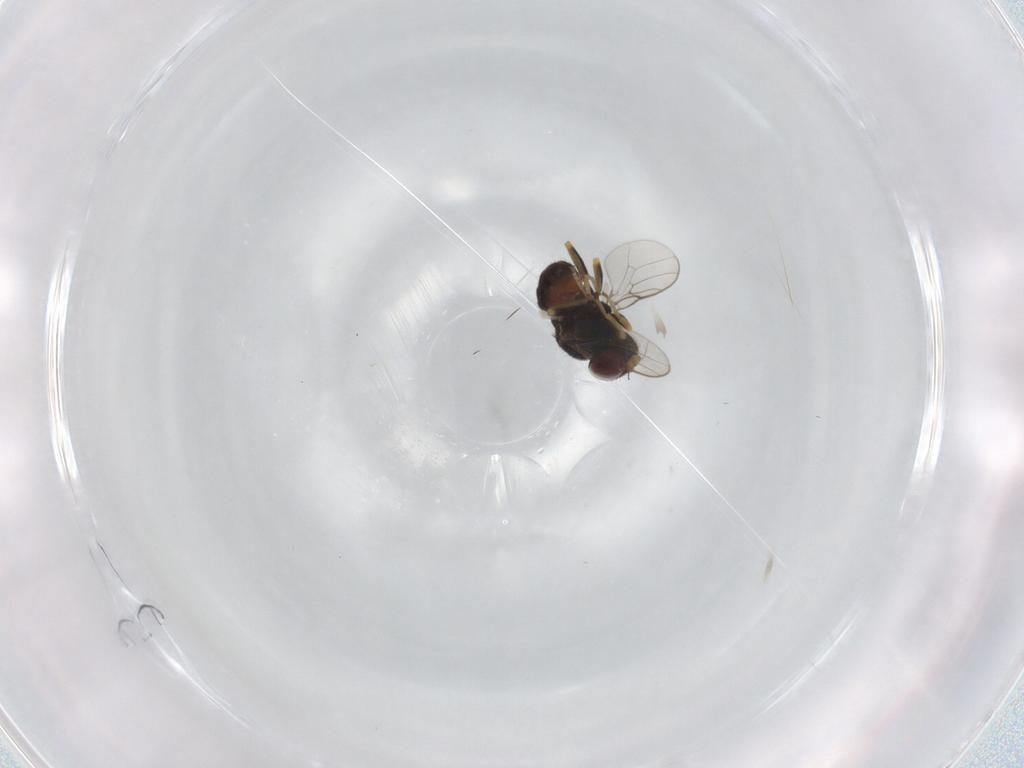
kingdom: Animalia
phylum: Arthropoda
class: Insecta
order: Diptera
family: Chloropidae
